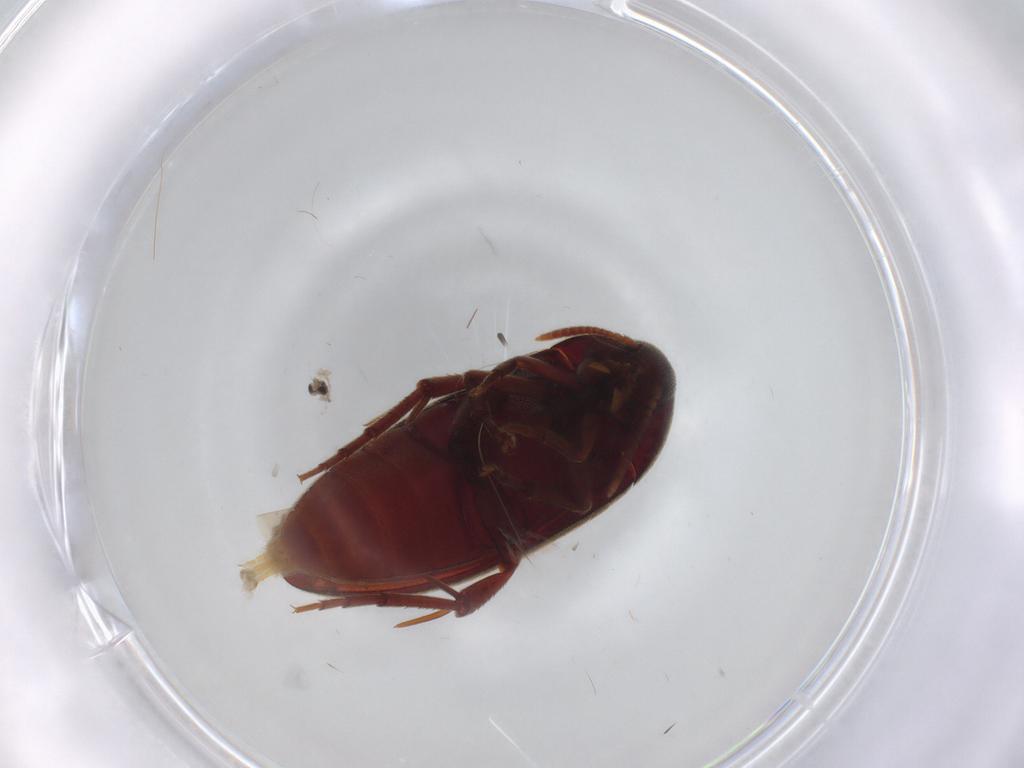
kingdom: Animalia
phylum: Arthropoda
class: Insecta
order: Coleoptera
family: Melandryidae
